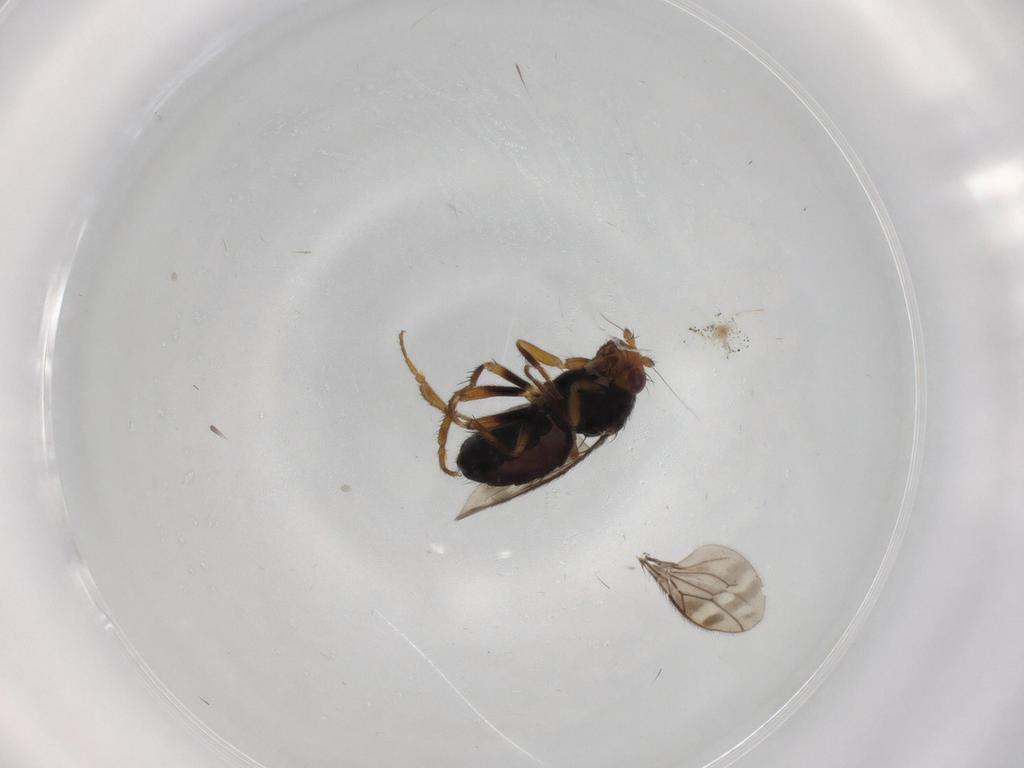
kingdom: Animalia
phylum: Arthropoda
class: Insecta
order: Diptera
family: Sphaeroceridae
